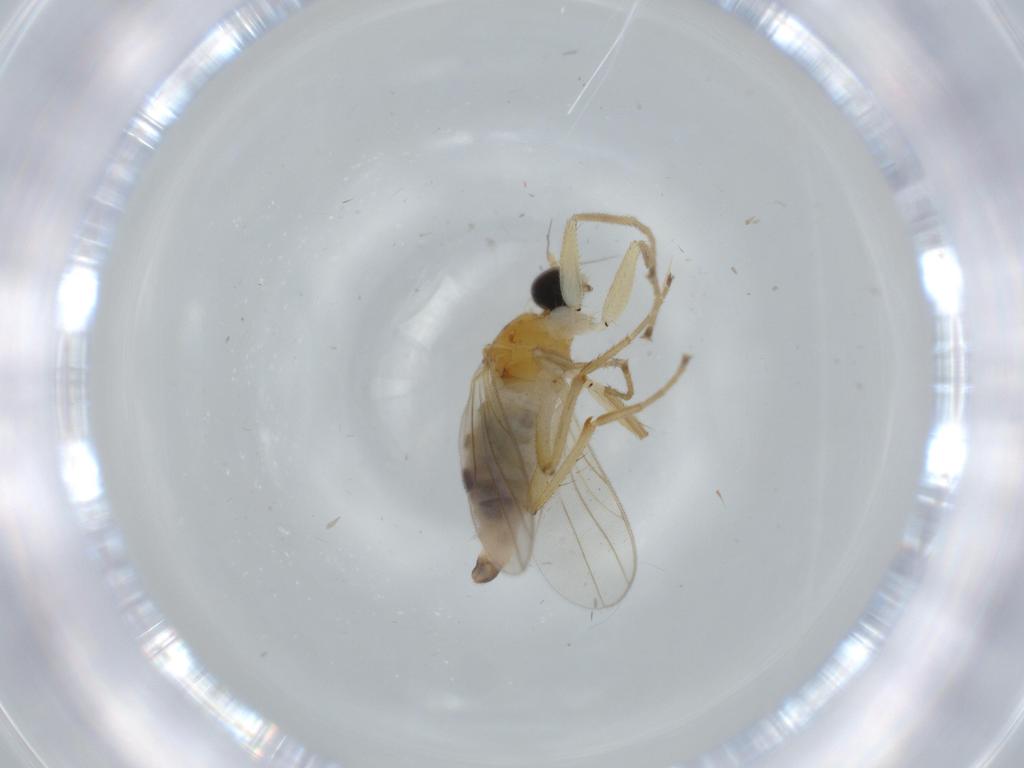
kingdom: Animalia
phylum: Arthropoda
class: Insecta
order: Diptera
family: Hybotidae
